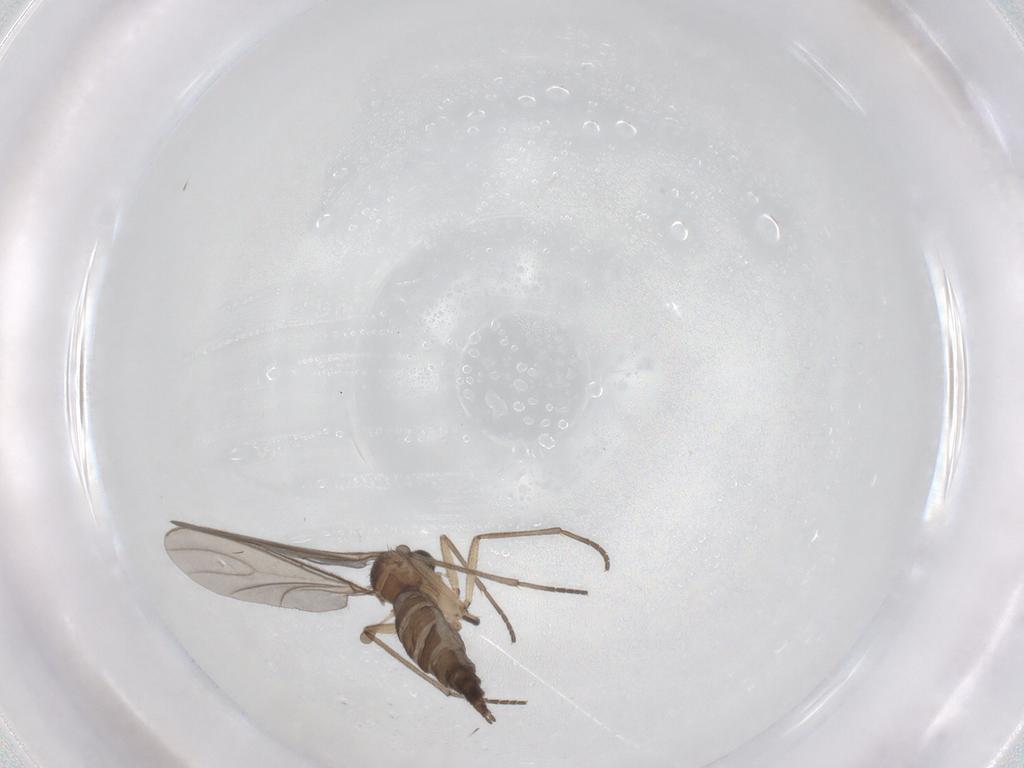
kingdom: Animalia
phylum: Arthropoda
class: Insecta
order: Diptera
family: Sciaridae
